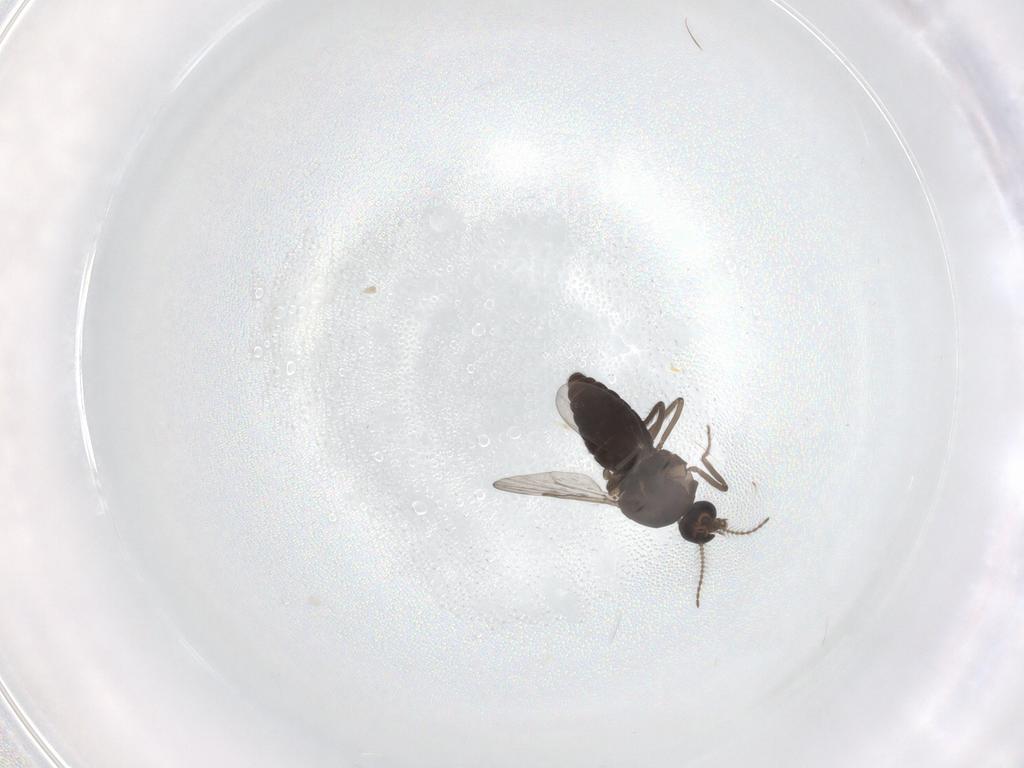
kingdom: Animalia
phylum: Arthropoda
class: Insecta
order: Diptera
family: Ceratopogonidae
